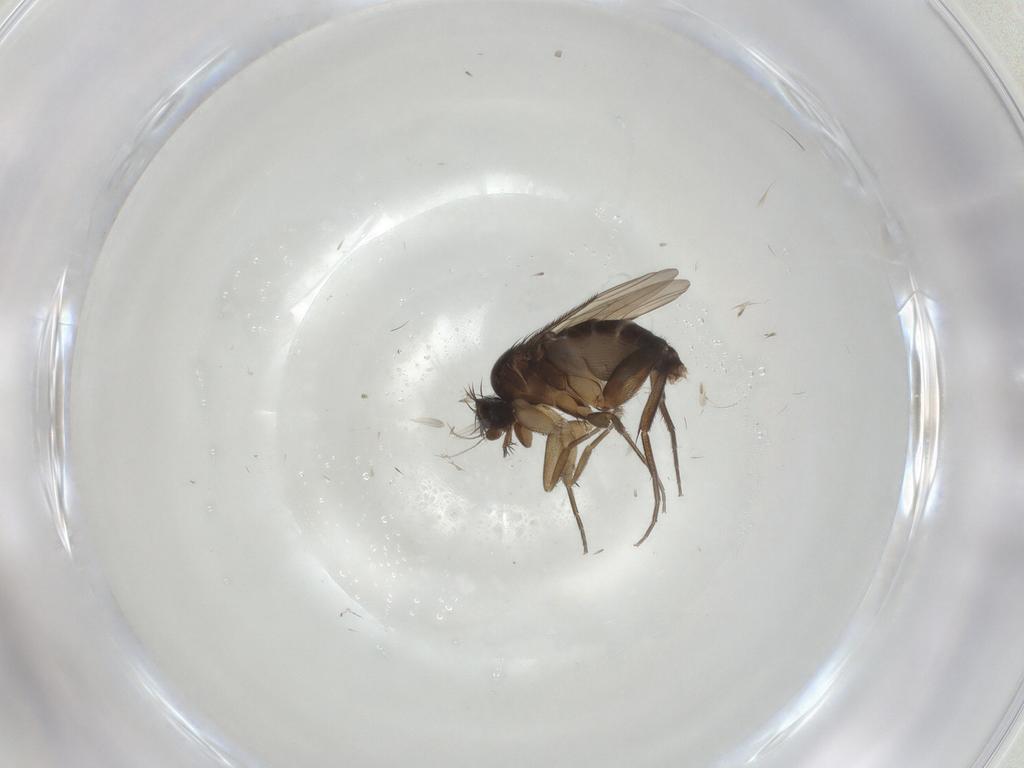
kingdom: Animalia
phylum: Arthropoda
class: Insecta
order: Diptera
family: Phoridae
